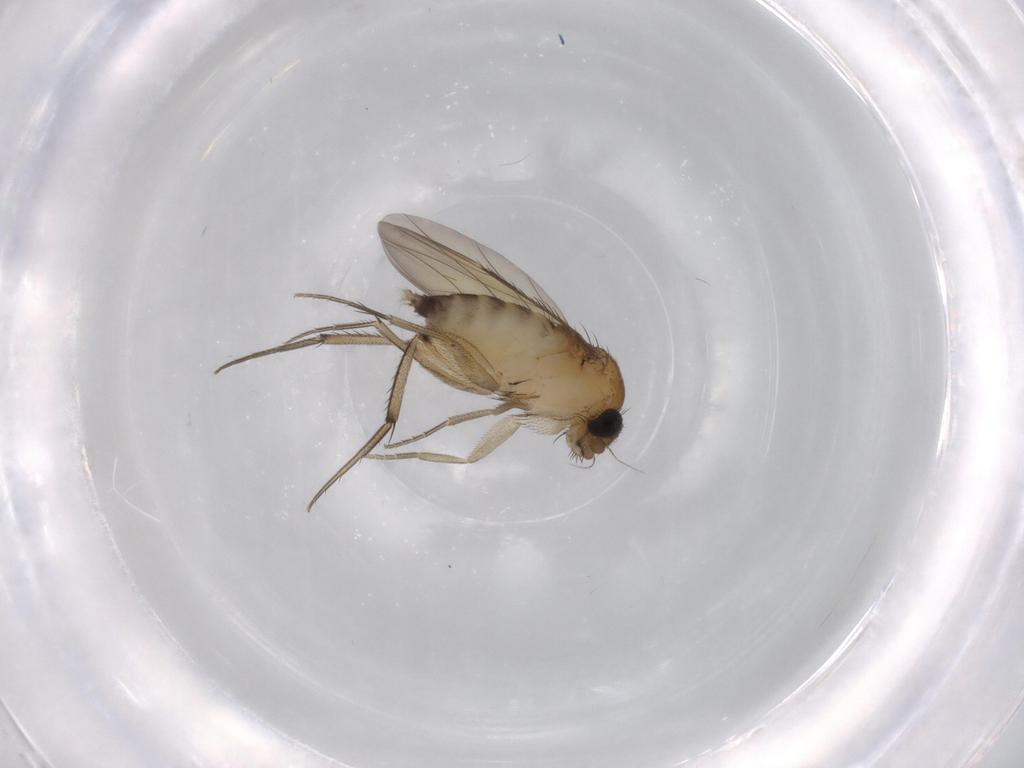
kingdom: Animalia
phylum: Arthropoda
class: Insecta
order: Diptera
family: Phoridae
